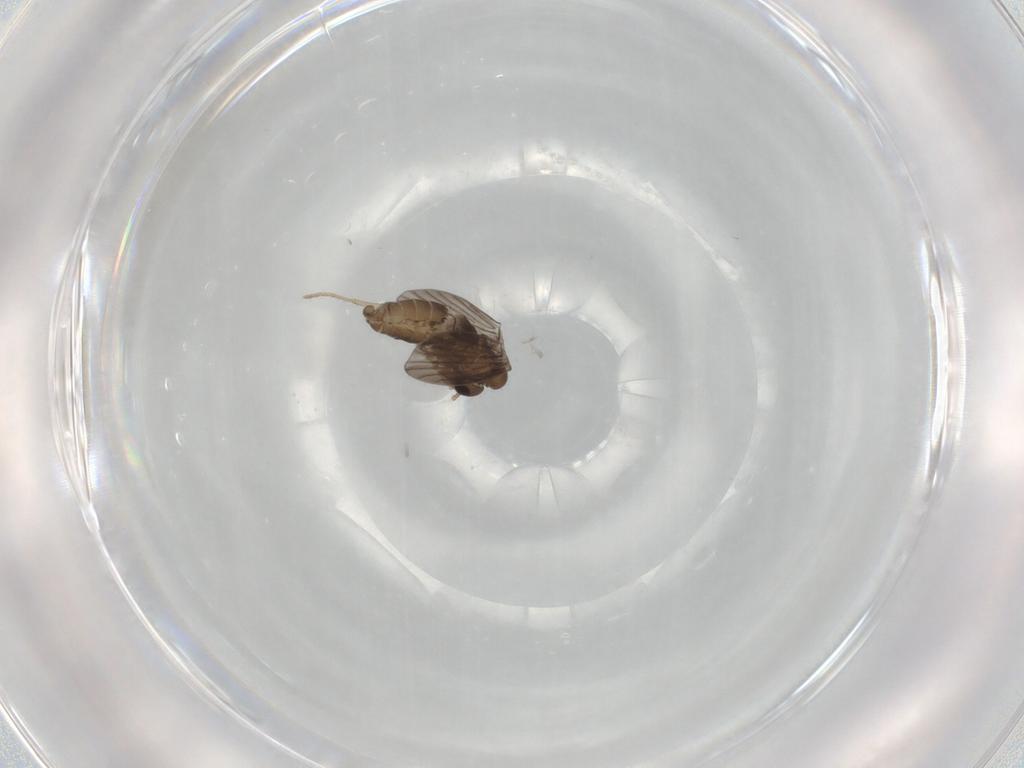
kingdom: Animalia
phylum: Arthropoda
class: Insecta
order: Diptera
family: Psychodidae
